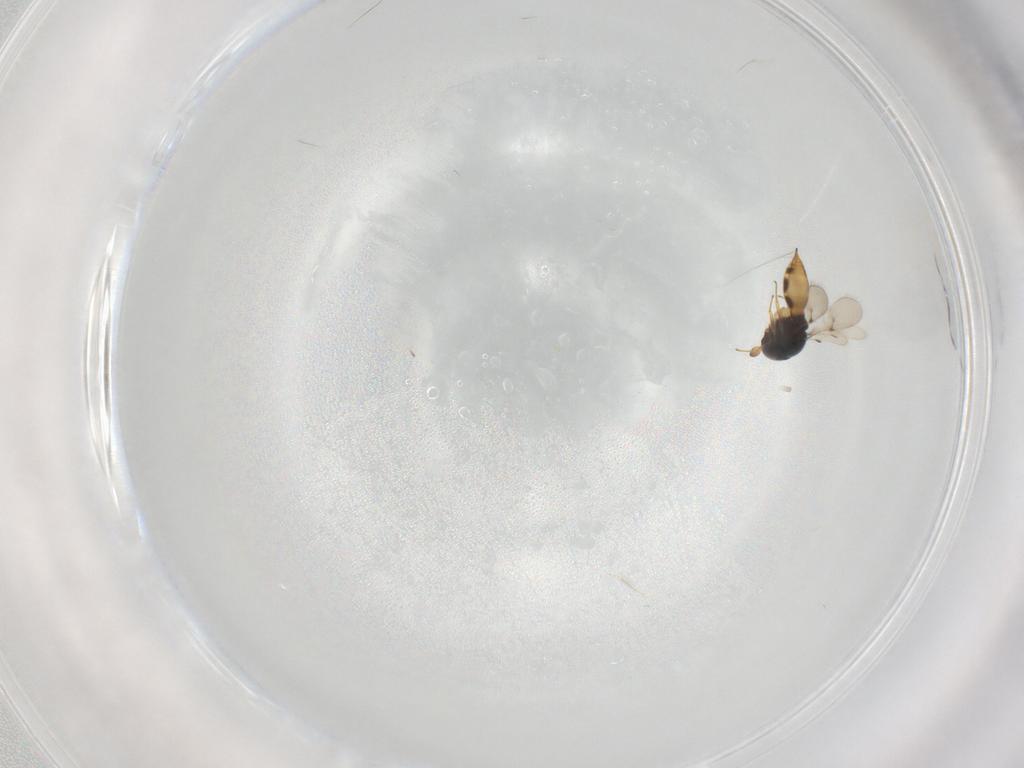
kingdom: Animalia
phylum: Arthropoda
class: Insecta
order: Hymenoptera
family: Scelionidae
